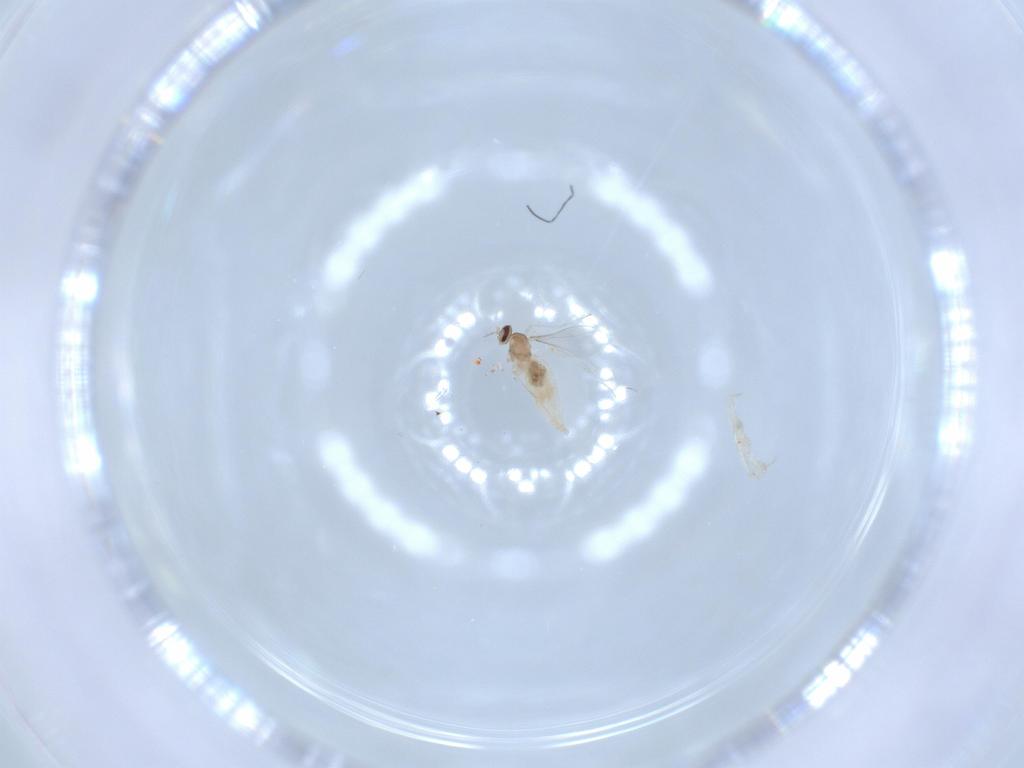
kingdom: Animalia
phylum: Arthropoda
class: Insecta
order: Diptera
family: Cecidomyiidae
